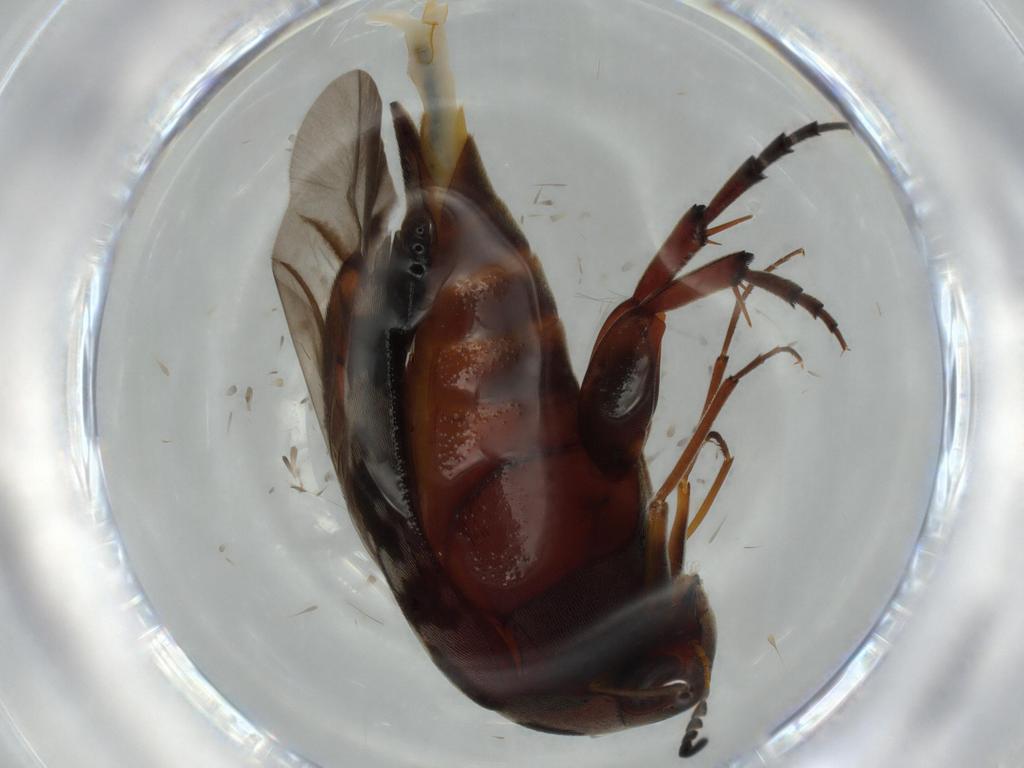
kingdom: Animalia
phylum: Arthropoda
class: Insecta
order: Coleoptera
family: Mordellidae
